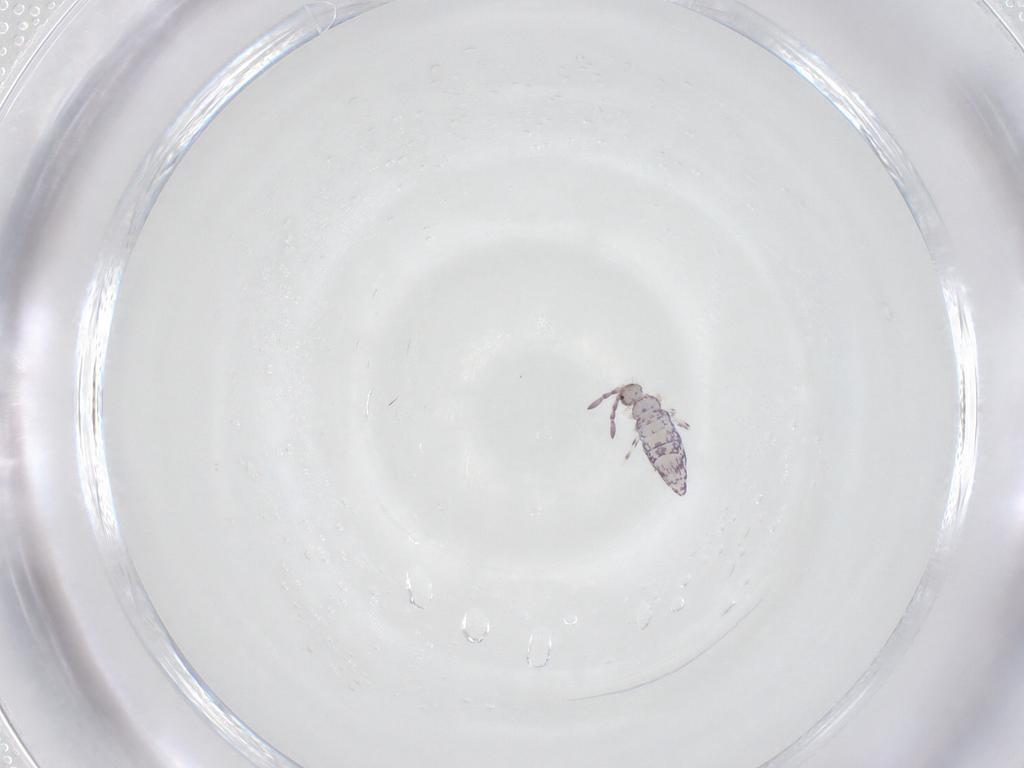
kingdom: Animalia
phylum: Arthropoda
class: Collembola
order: Entomobryomorpha
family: Entomobryidae
